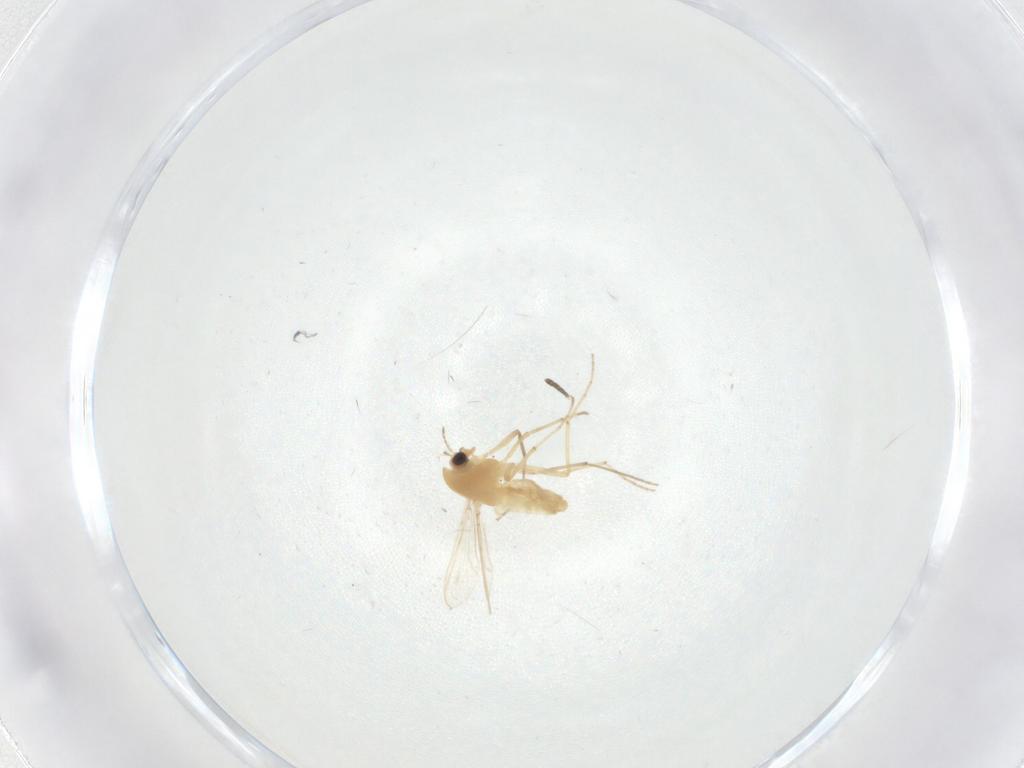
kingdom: Animalia
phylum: Arthropoda
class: Insecta
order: Diptera
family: Chironomidae
